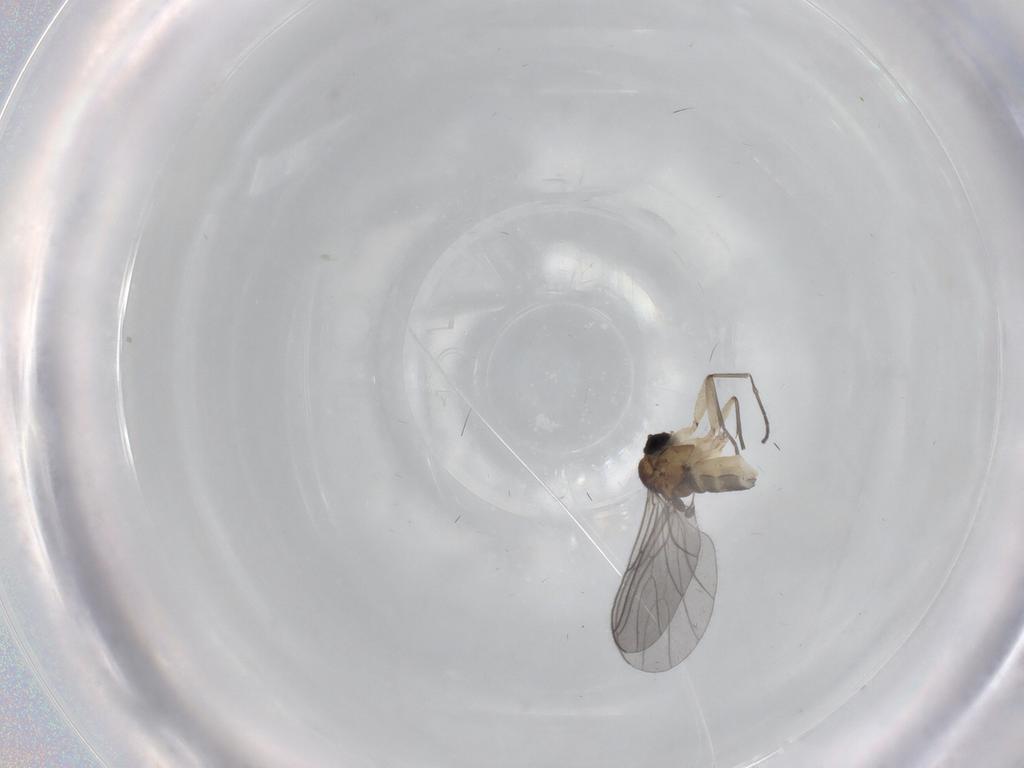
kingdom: Animalia
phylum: Arthropoda
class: Insecta
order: Diptera
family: Sciaridae
